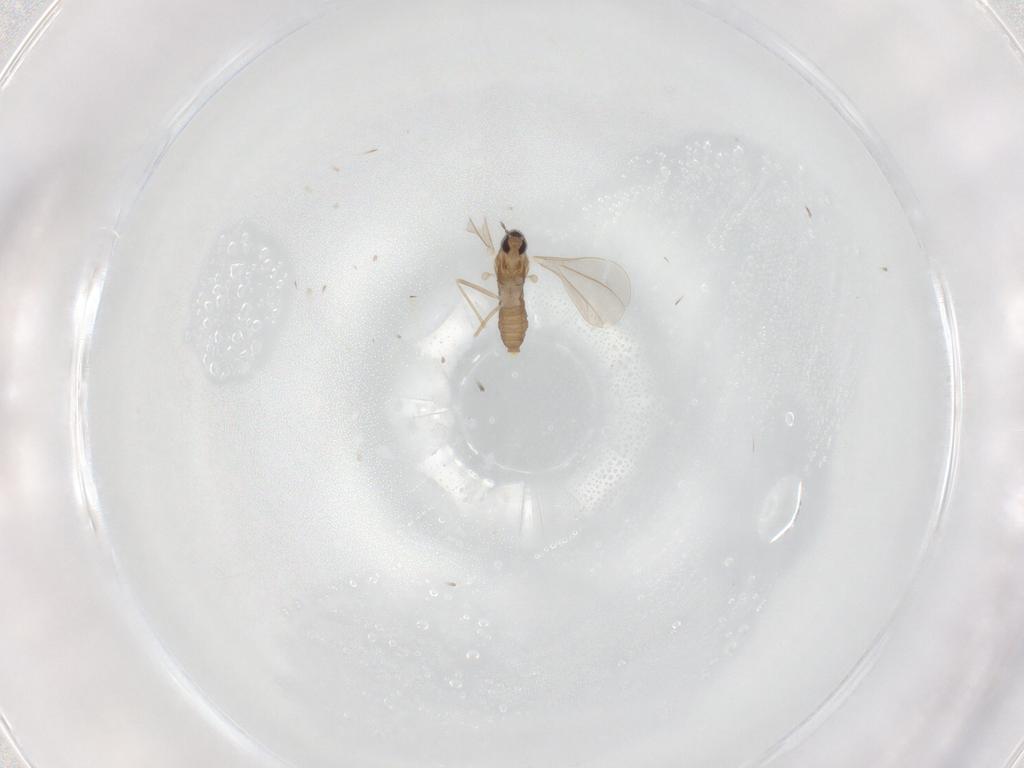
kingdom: Animalia
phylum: Arthropoda
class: Insecta
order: Diptera
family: Cecidomyiidae
